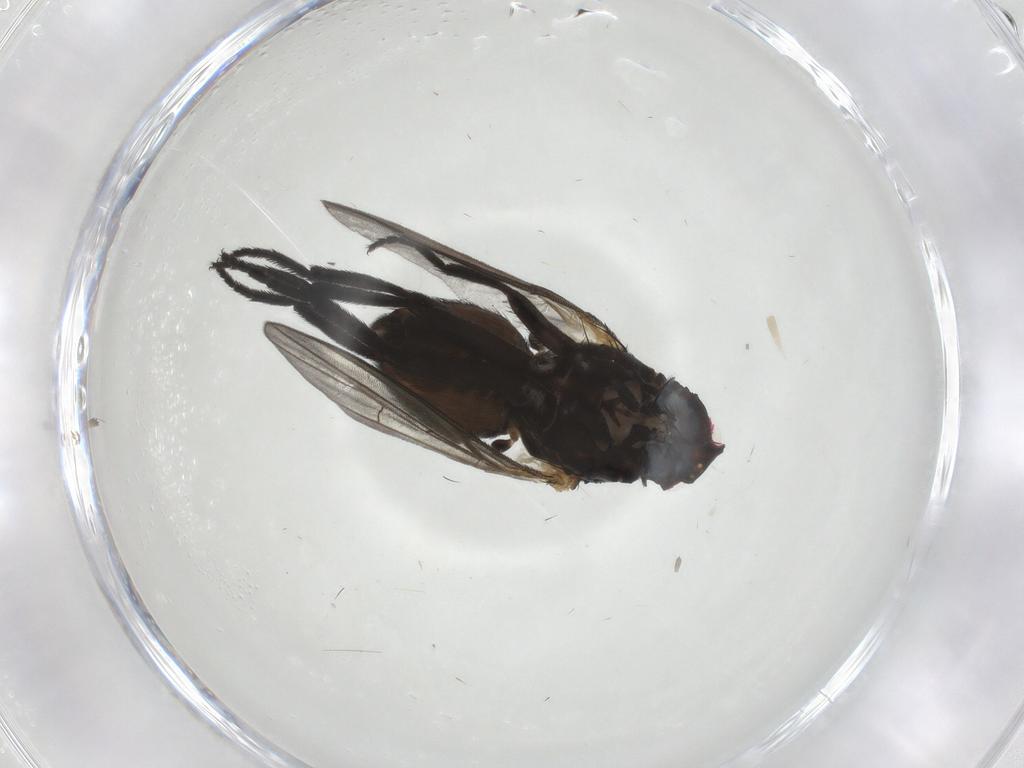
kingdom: Animalia
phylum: Arthropoda
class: Insecta
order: Diptera
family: Agromyzidae
